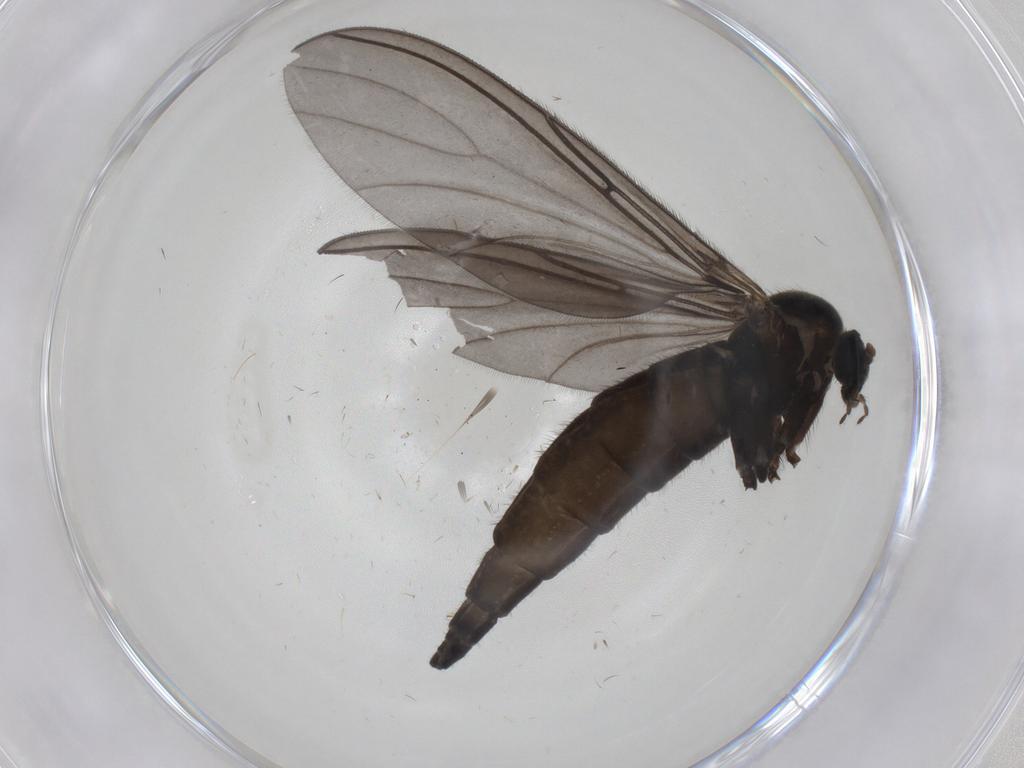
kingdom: Animalia
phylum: Arthropoda
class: Insecta
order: Diptera
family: Sciaridae
